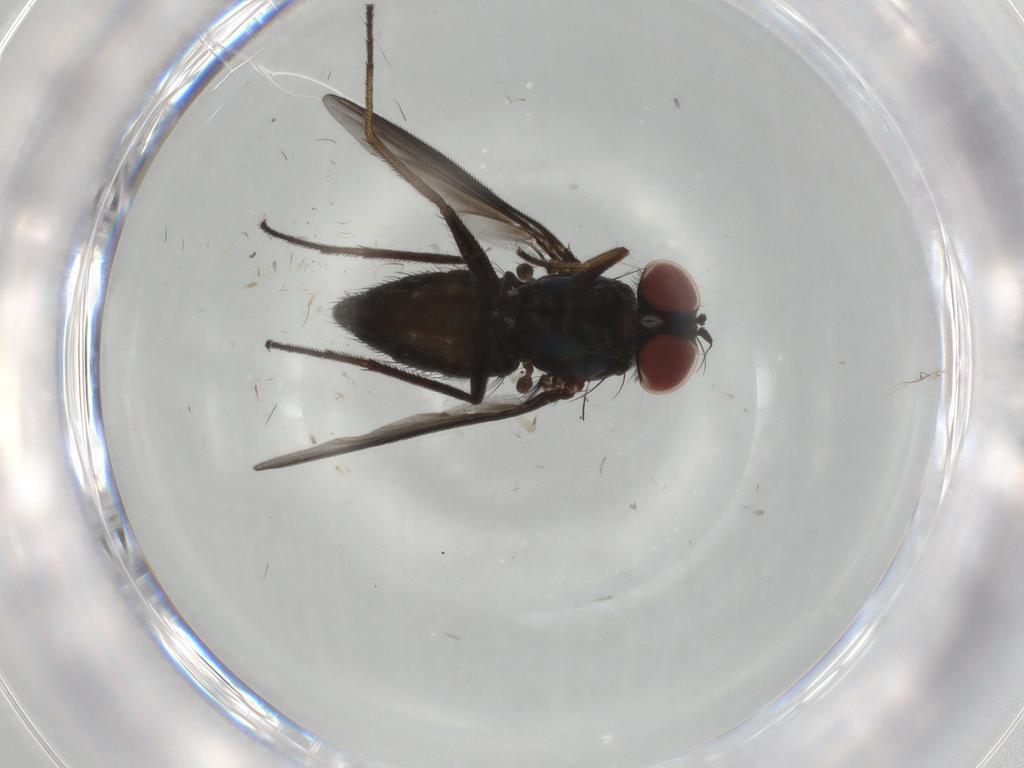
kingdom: Animalia
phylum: Arthropoda
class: Insecta
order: Diptera
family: Dolichopodidae
